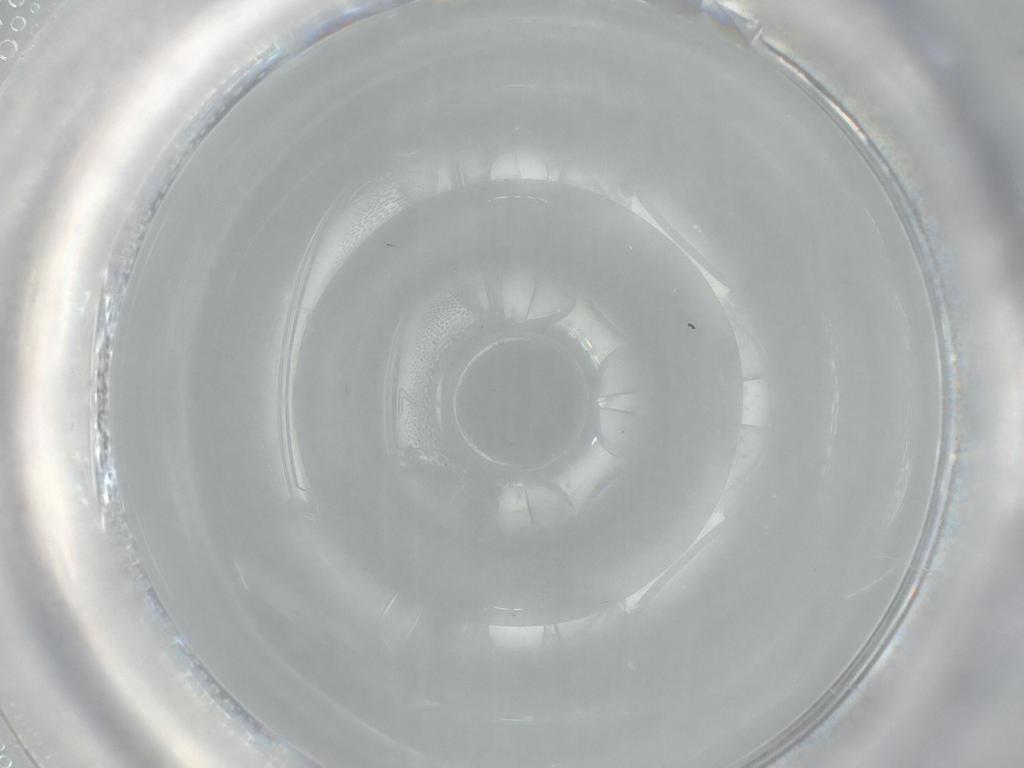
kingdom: Animalia
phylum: Arthropoda
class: Insecta
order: Diptera
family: Cecidomyiidae
